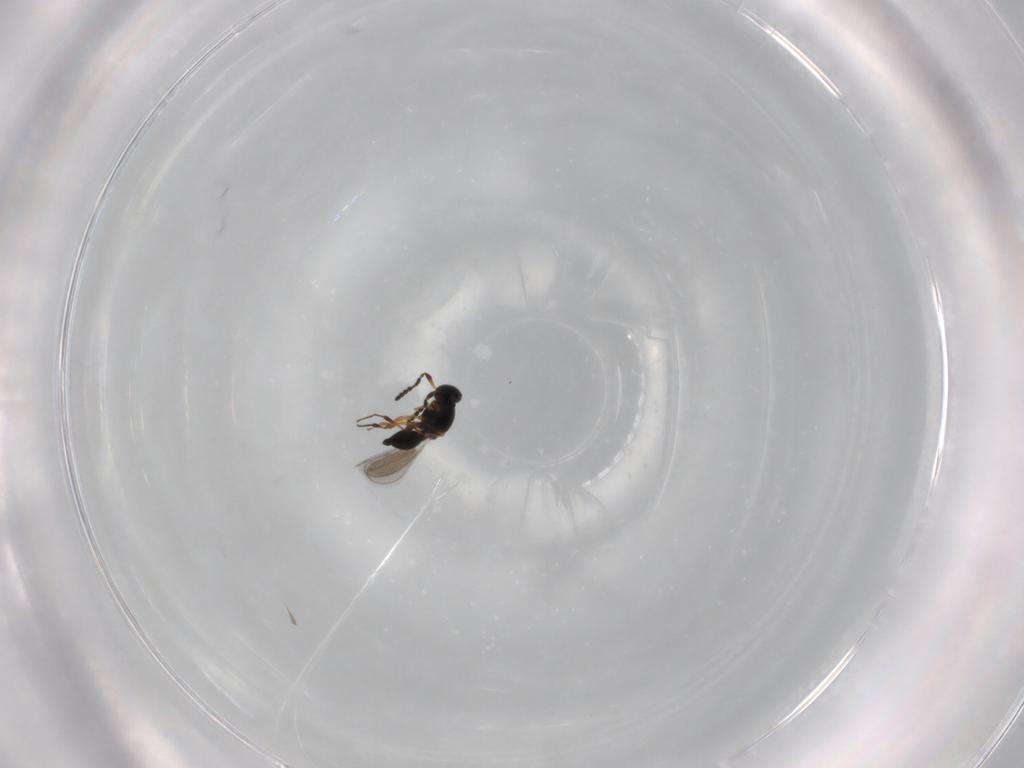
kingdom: Animalia
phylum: Arthropoda
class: Insecta
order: Hymenoptera
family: Platygastridae
